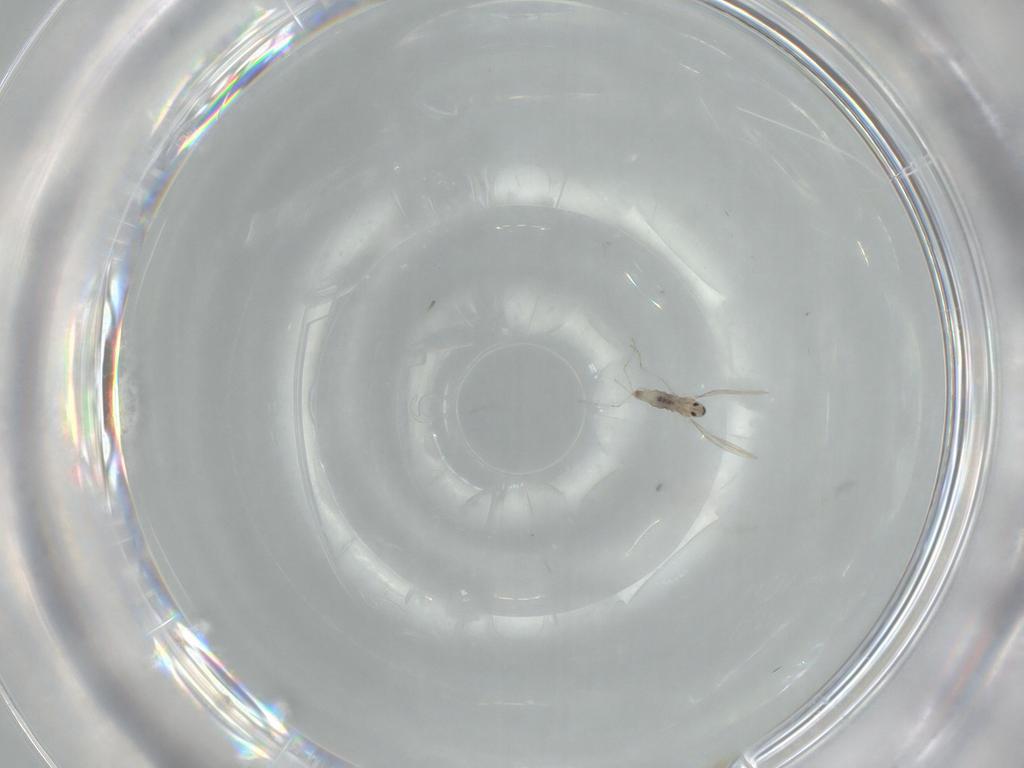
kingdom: Animalia
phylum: Arthropoda
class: Insecta
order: Diptera
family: Cecidomyiidae
